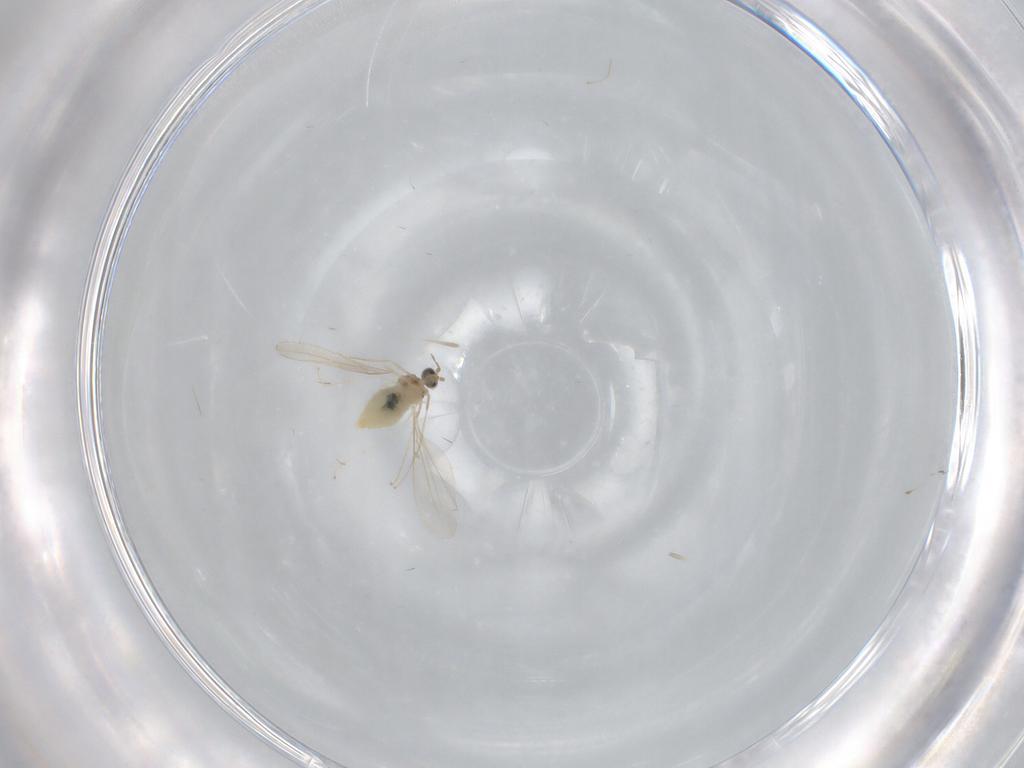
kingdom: Animalia
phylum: Arthropoda
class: Insecta
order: Diptera
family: Cecidomyiidae
